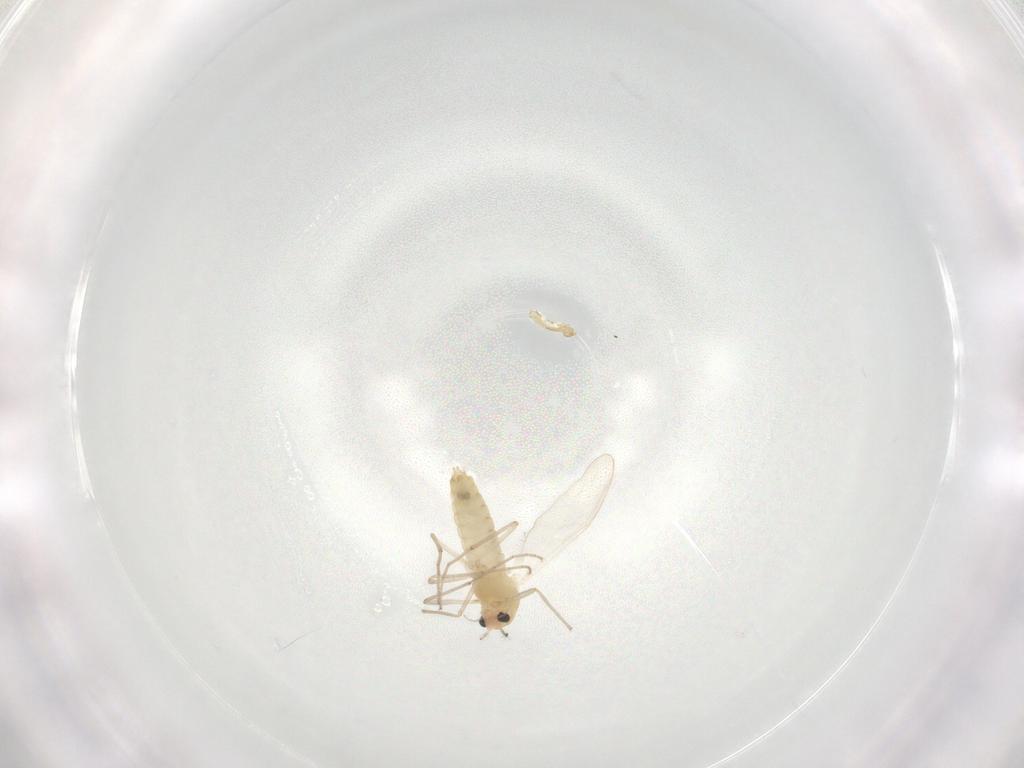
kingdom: Animalia
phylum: Arthropoda
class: Insecta
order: Diptera
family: Chironomidae
